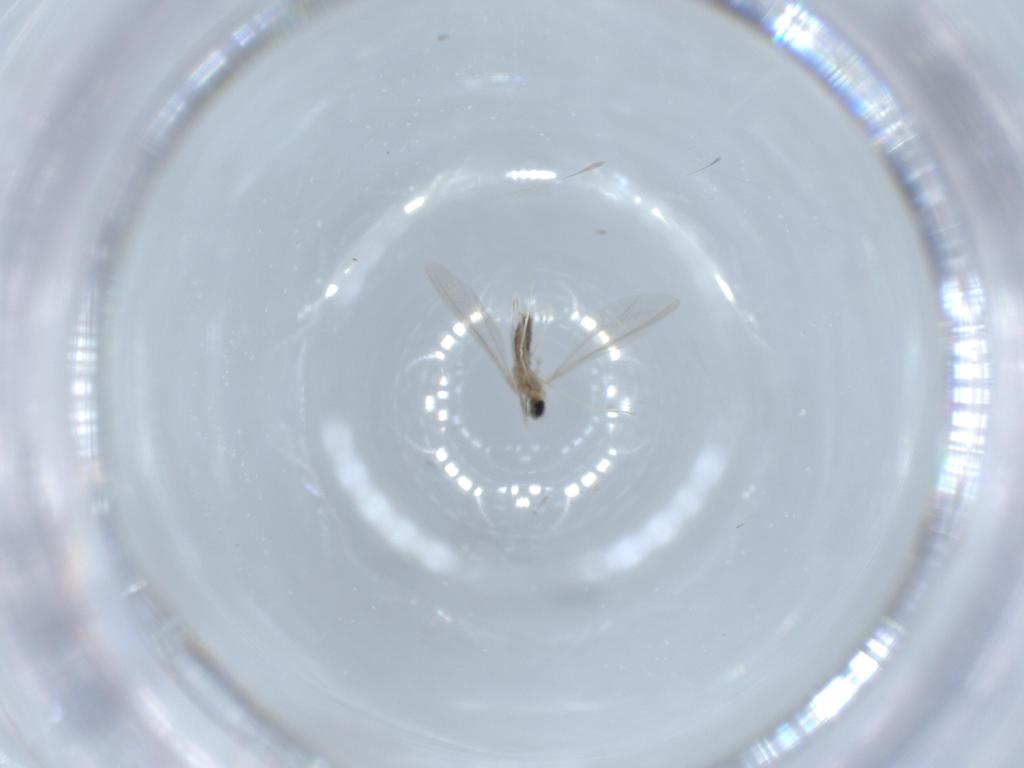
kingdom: Animalia
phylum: Arthropoda
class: Insecta
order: Diptera
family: Cecidomyiidae
